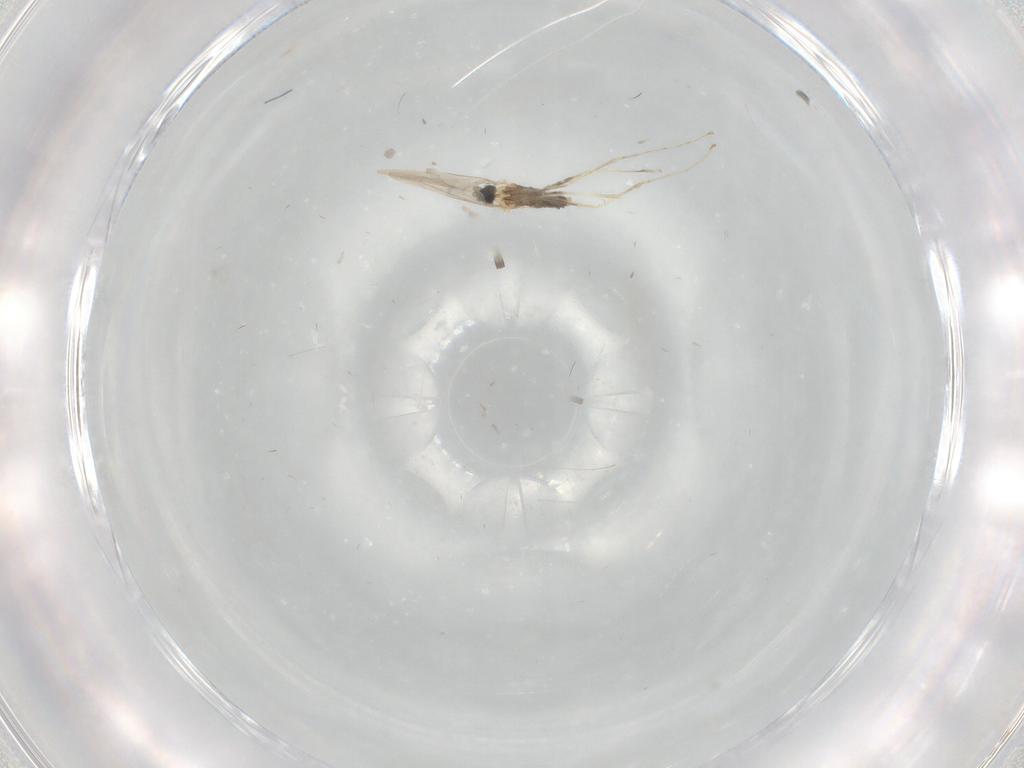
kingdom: Animalia
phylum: Arthropoda
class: Insecta
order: Diptera
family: Cecidomyiidae
